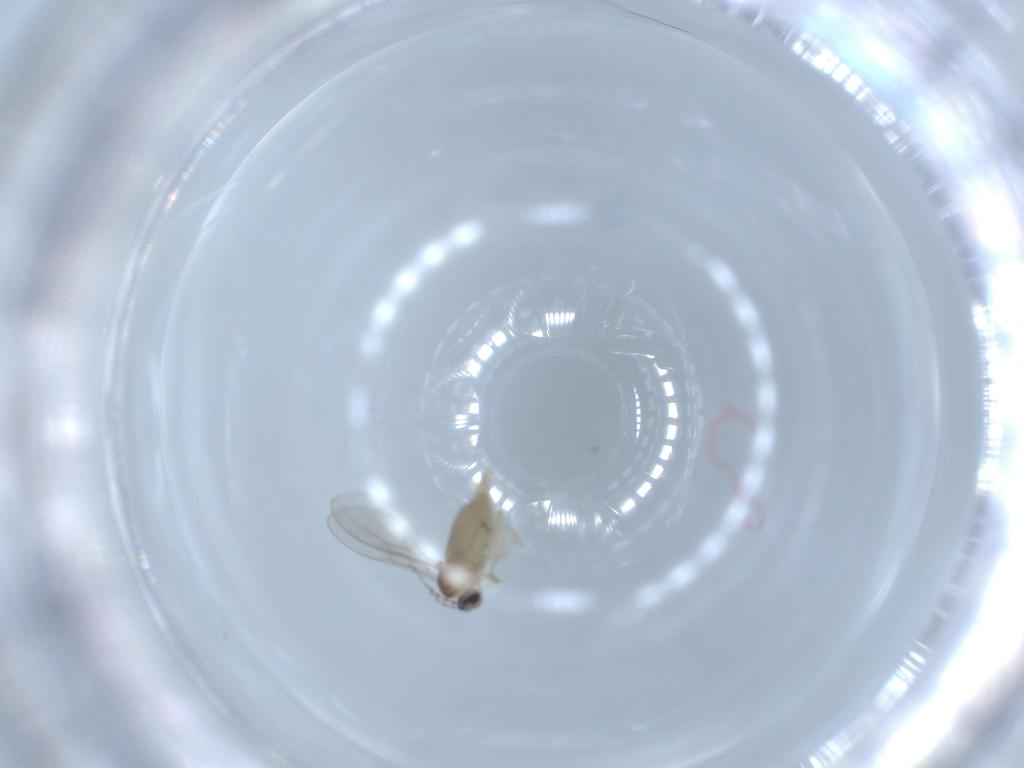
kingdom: Animalia
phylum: Arthropoda
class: Insecta
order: Diptera
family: Cecidomyiidae
